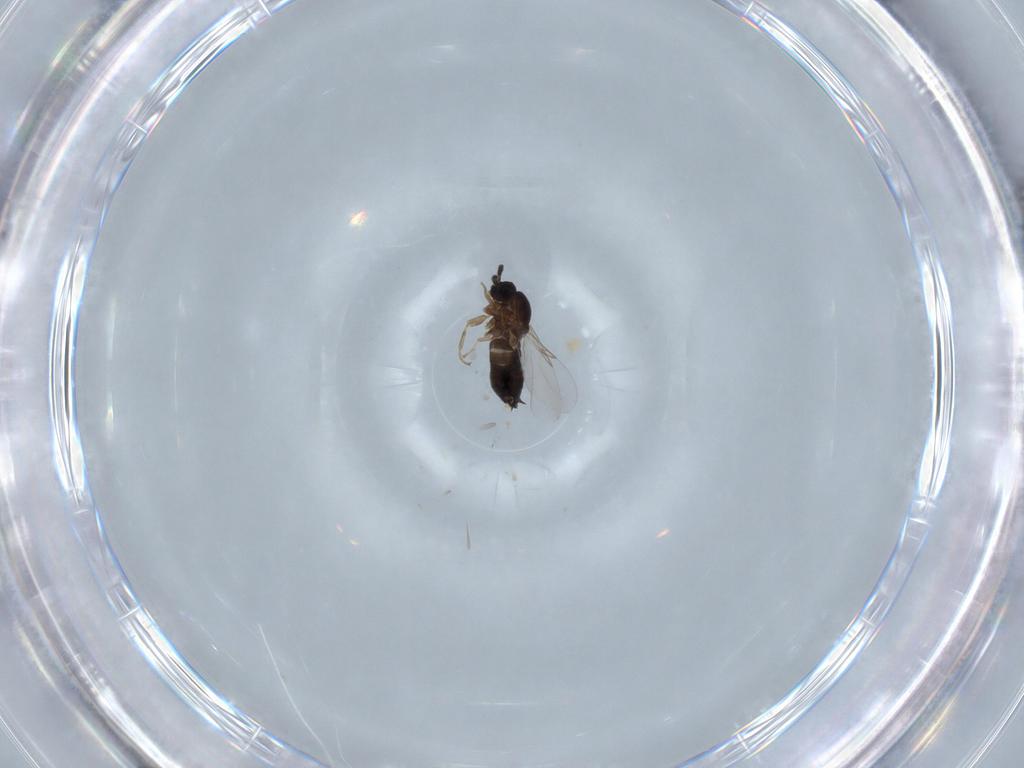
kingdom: Animalia
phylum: Arthropoda
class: Insecta
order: Diptera
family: Scatopsidae
